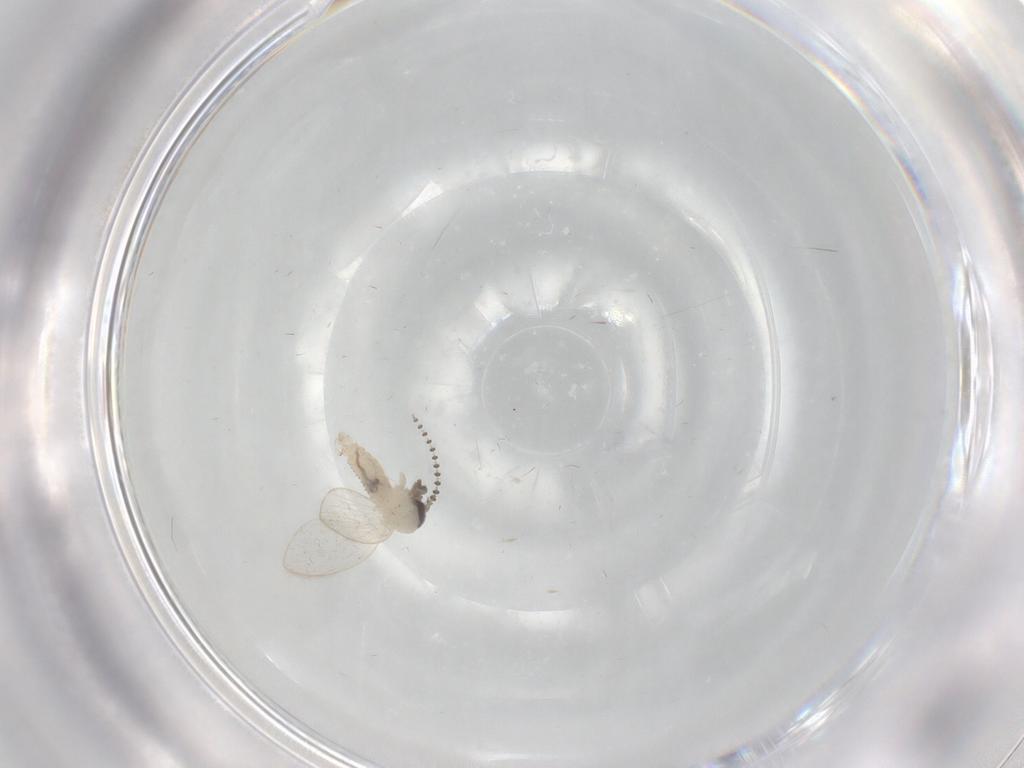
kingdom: Animalia
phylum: Arthropoda
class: Insecta
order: Diptera
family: Psychodidae
